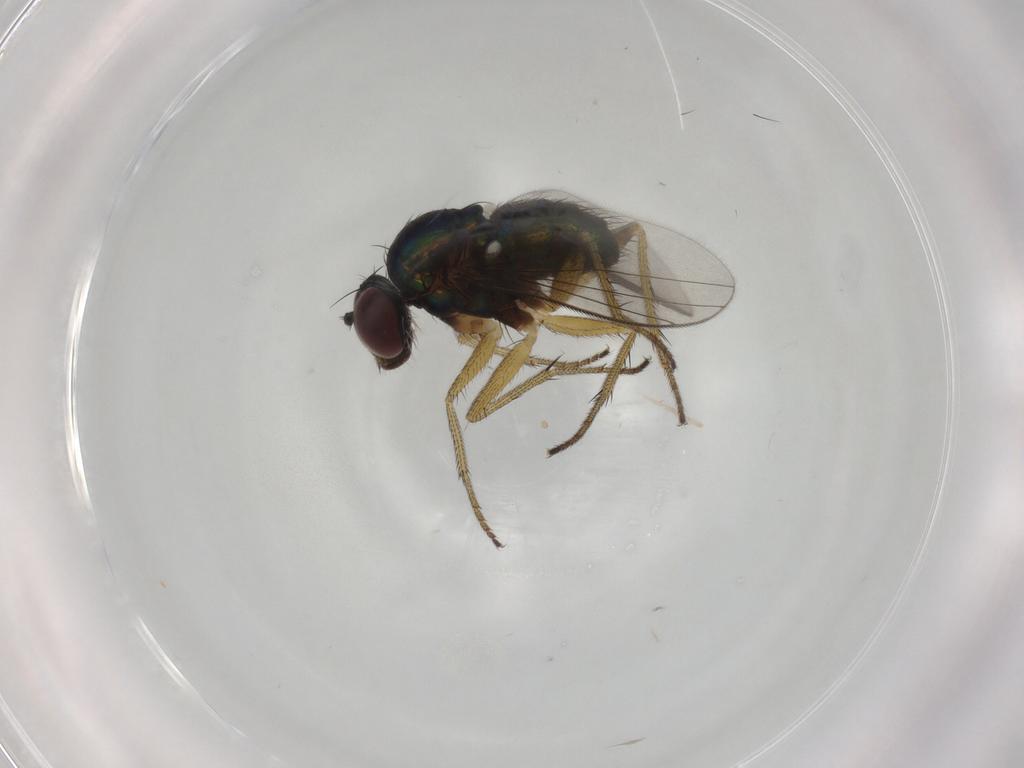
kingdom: Animalia
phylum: Arthropoda
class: Insecta
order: Diptera
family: Dolichopodidae
